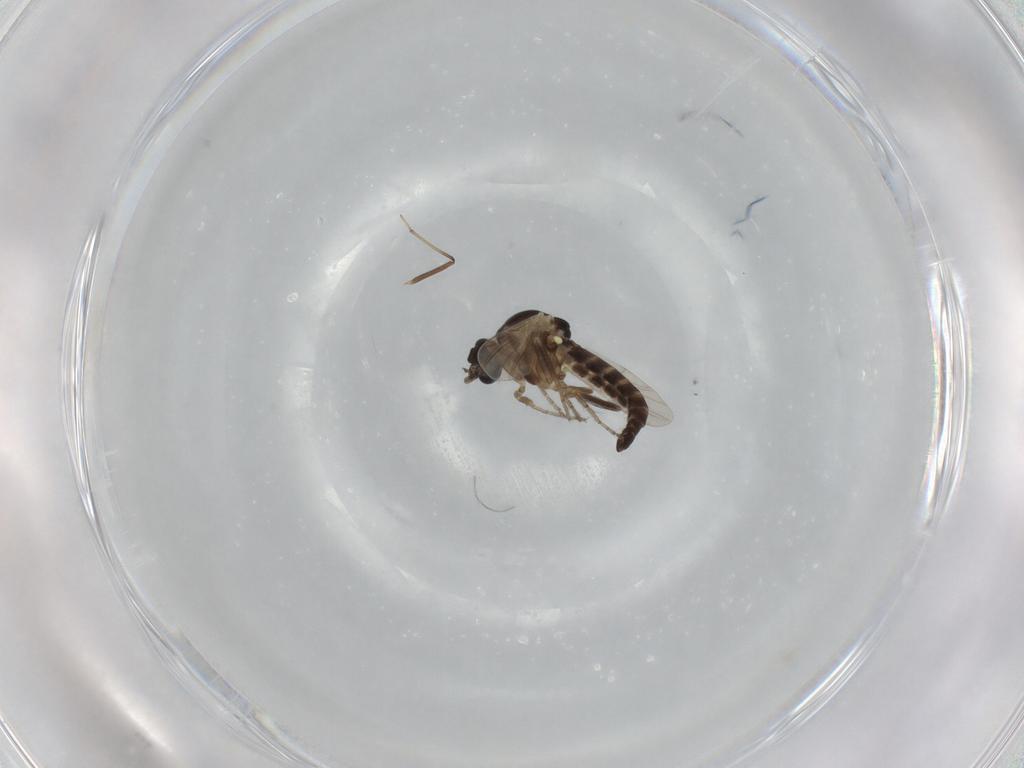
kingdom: Animalia
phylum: Arthropoda
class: Insecta
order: Diptera
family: Ceratopogonidae
